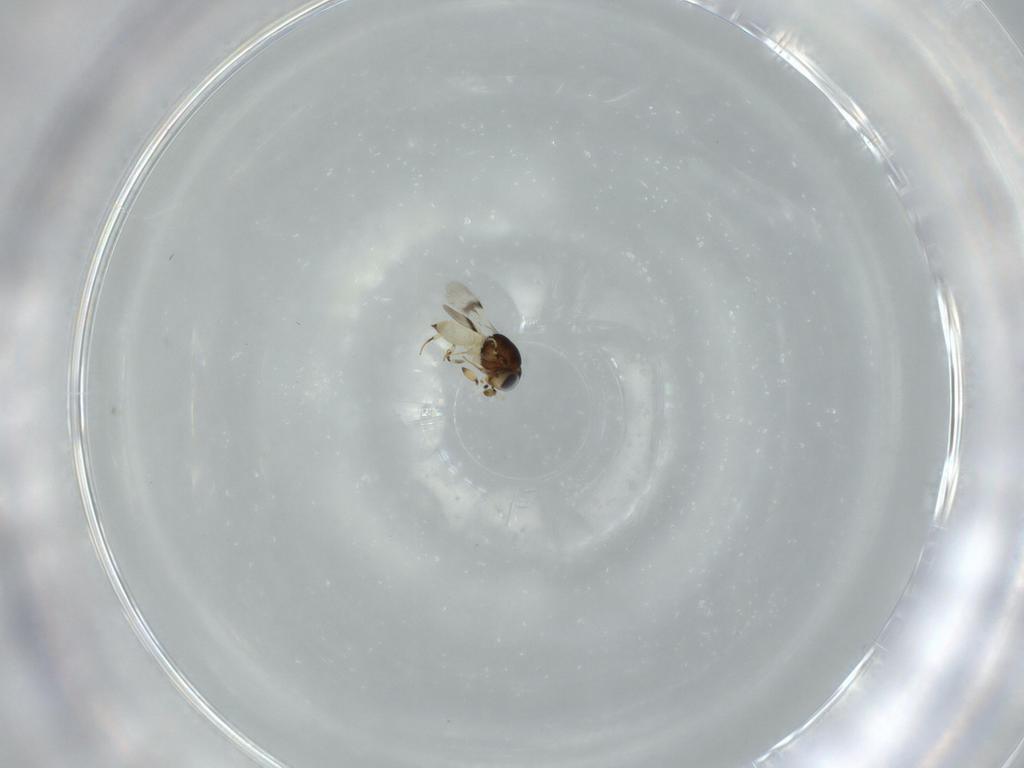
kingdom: Animalia
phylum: Arthropoda
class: Insecta
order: Hymenoptera
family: Scelionidae
